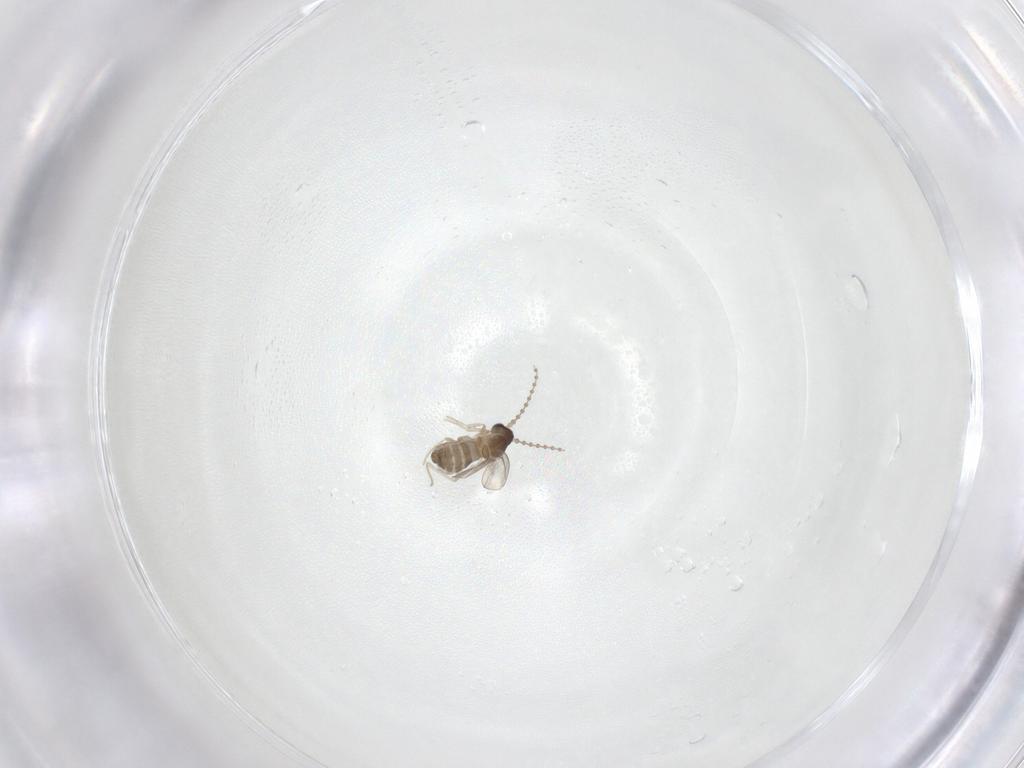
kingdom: Animalia
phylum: Arthropoda
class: Insecta
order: Diptera
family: Cecidomyiidae
